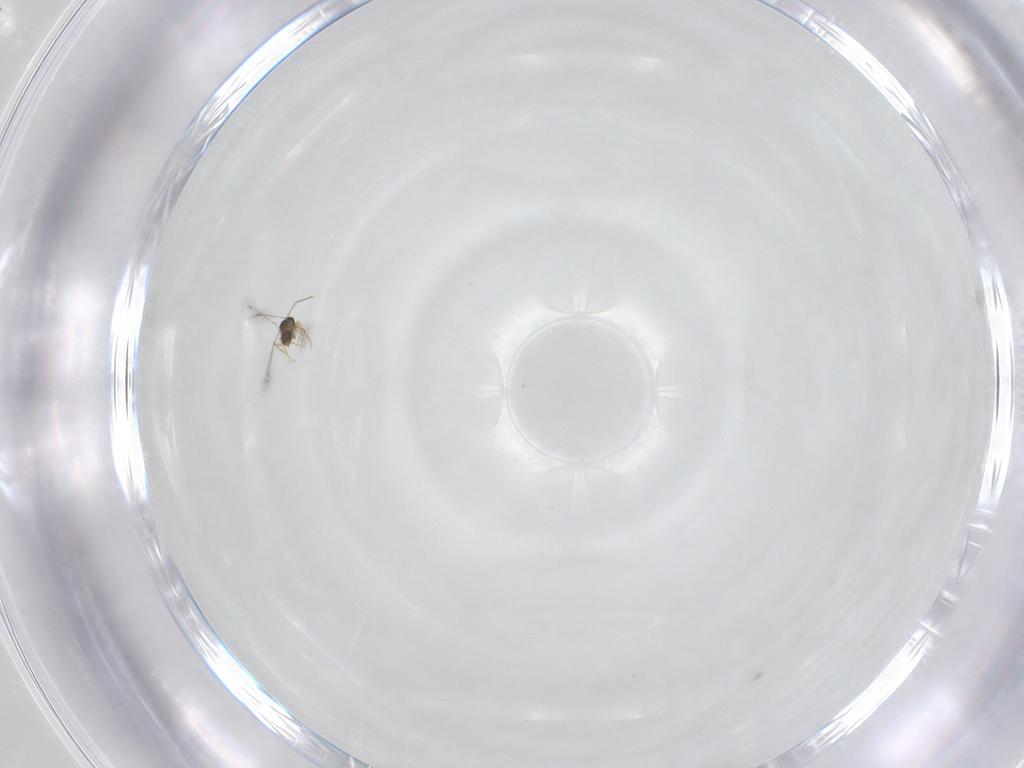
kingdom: Animalia
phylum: Arthropoda
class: Insecta
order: Hymenoptera
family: Mymaridae
